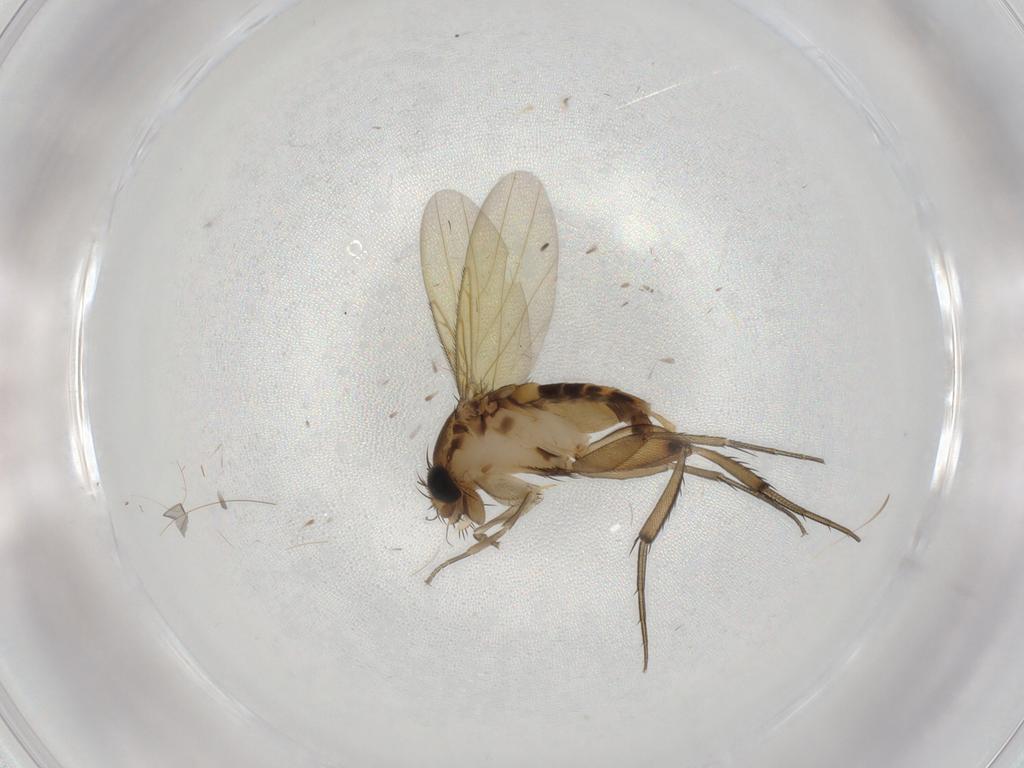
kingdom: Animalia
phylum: Arthropoda
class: Insecta
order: Diptera
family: Phoridae
